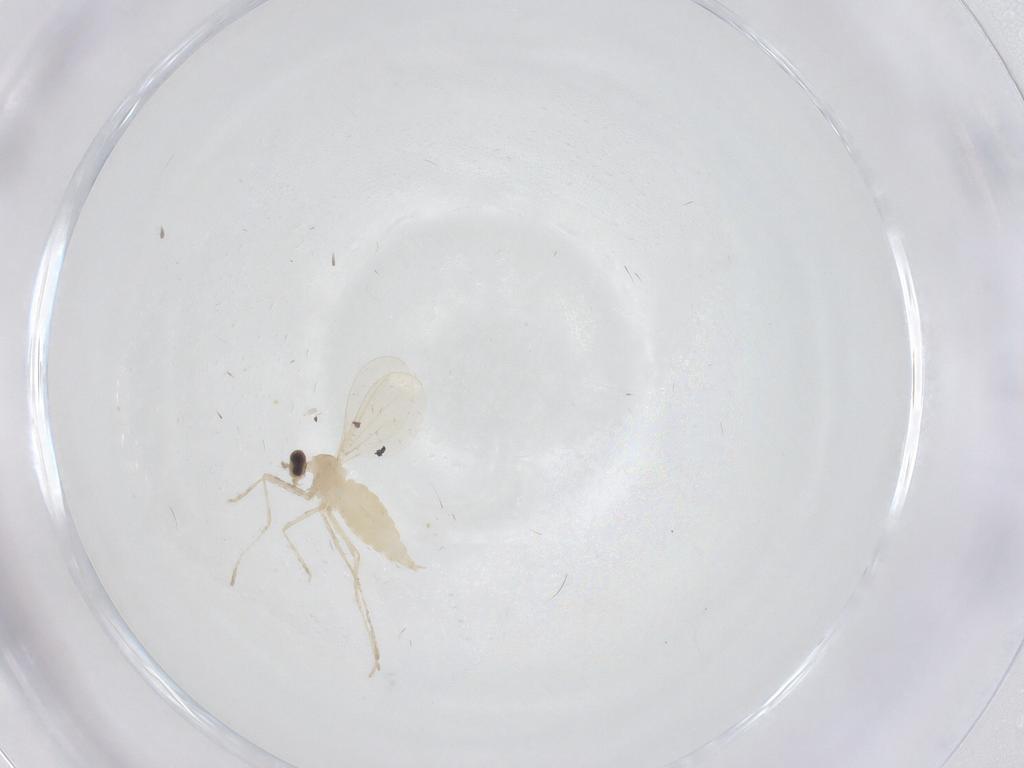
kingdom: Animalia
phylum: Arthropoda
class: Insecta
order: Diptera
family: Cecidomyiidae
